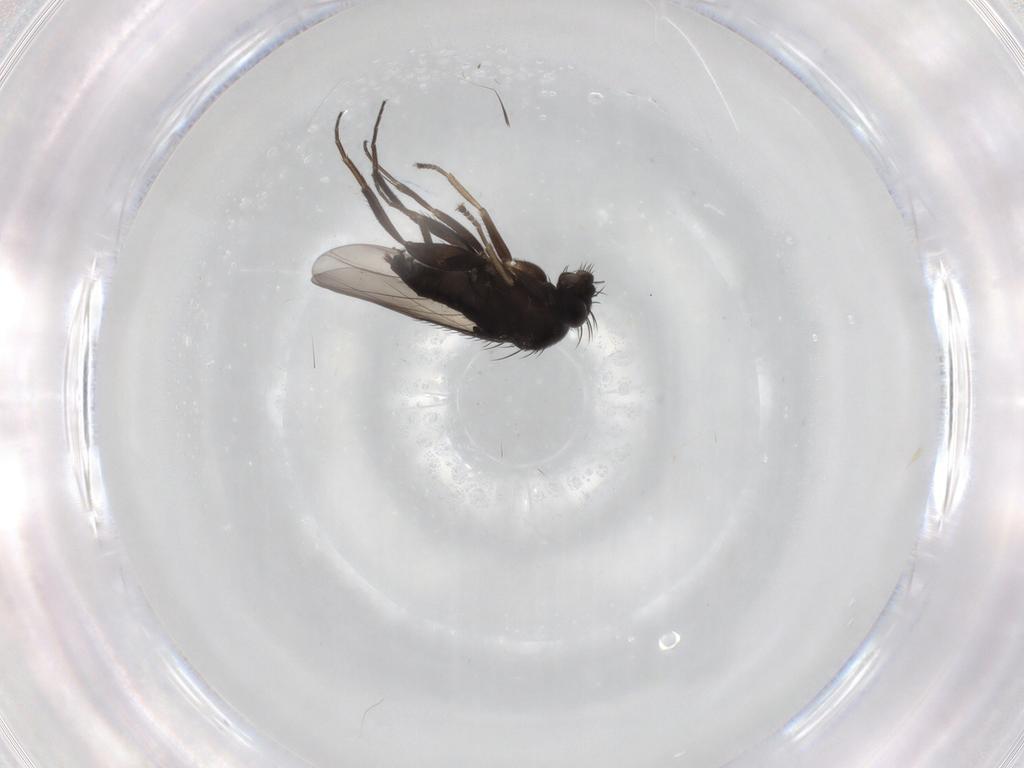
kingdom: Animalia
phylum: Arthropoda
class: Insecta
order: Diptera
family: Phoridae
